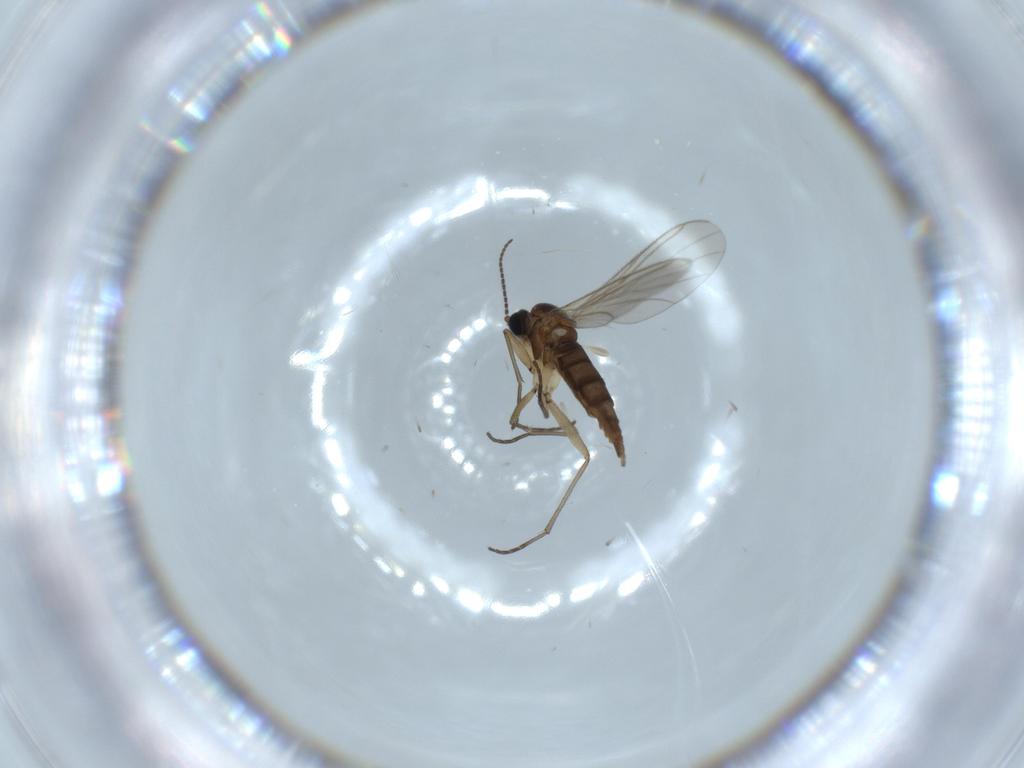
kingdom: Animalia
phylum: Arthropoda
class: Insecta
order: Diptera
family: Sciaridae
